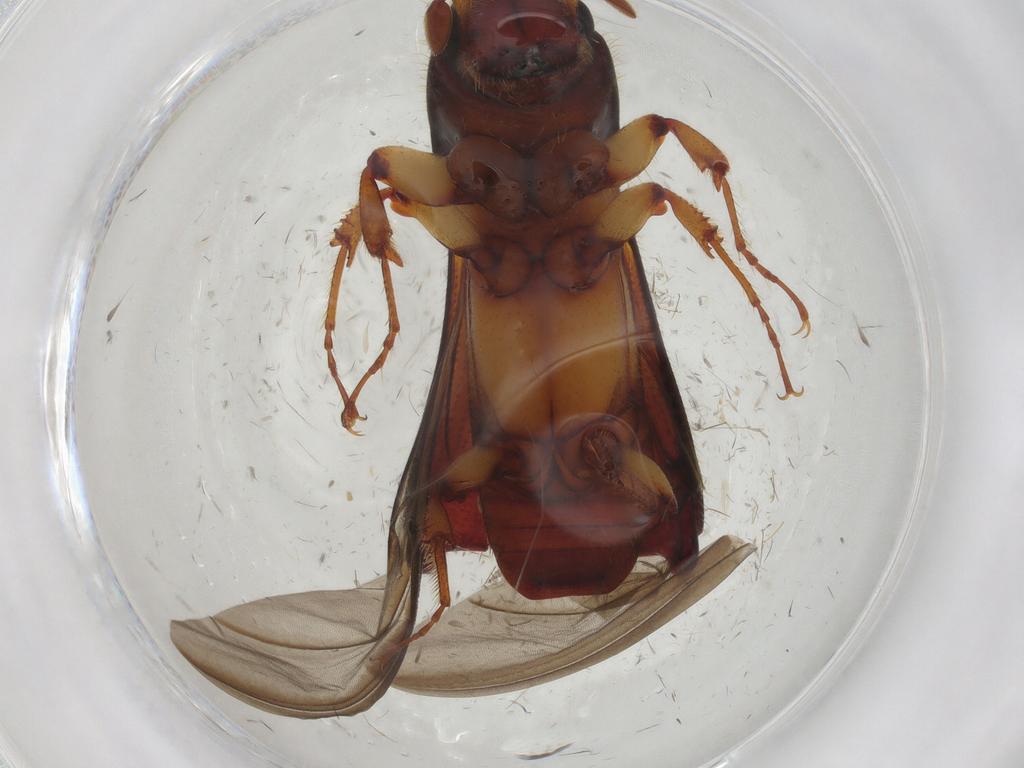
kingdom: Animalia
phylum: Arthropoda
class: Insecta
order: Coleoptera
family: Curculionidae
